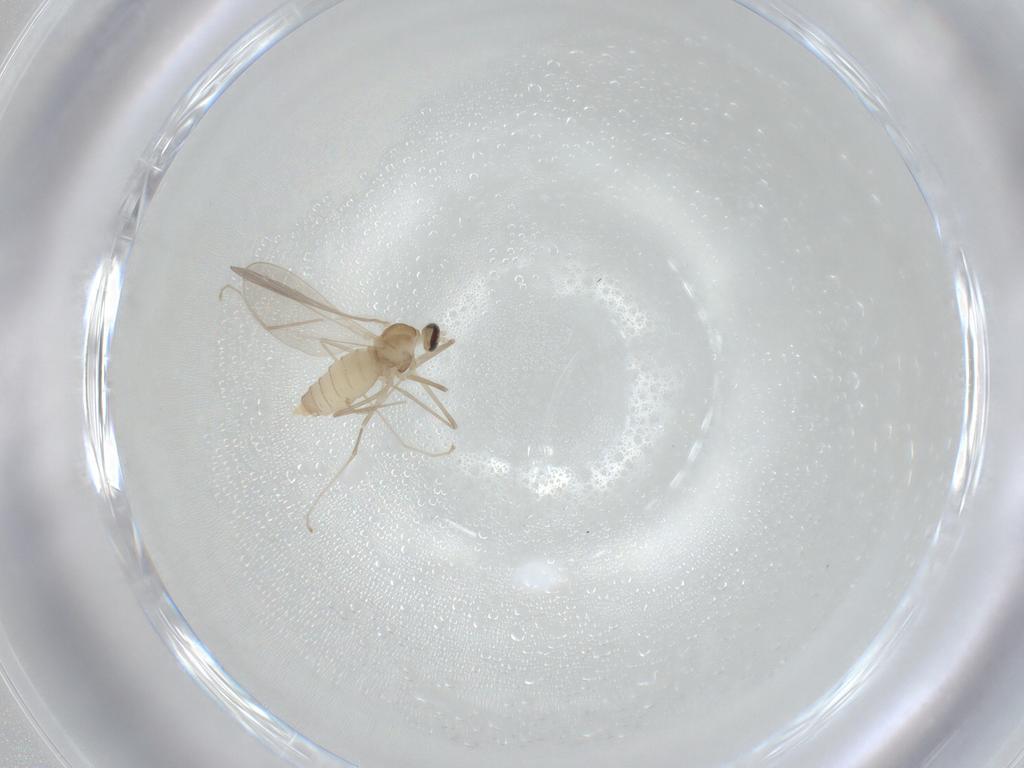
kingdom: Animalia
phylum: Arthropoda
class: Insecta
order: Diptera
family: Cecidomyiidae
